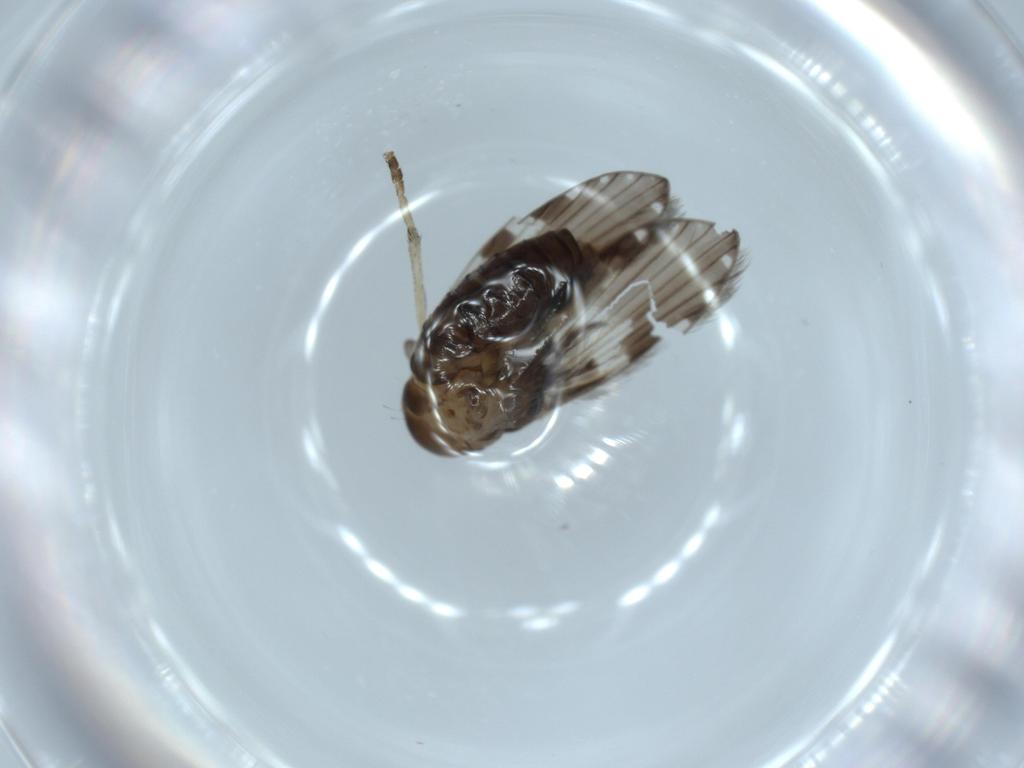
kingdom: Animalia
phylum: Arthropoda
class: Insecta
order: Diptera
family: Psychodidae
